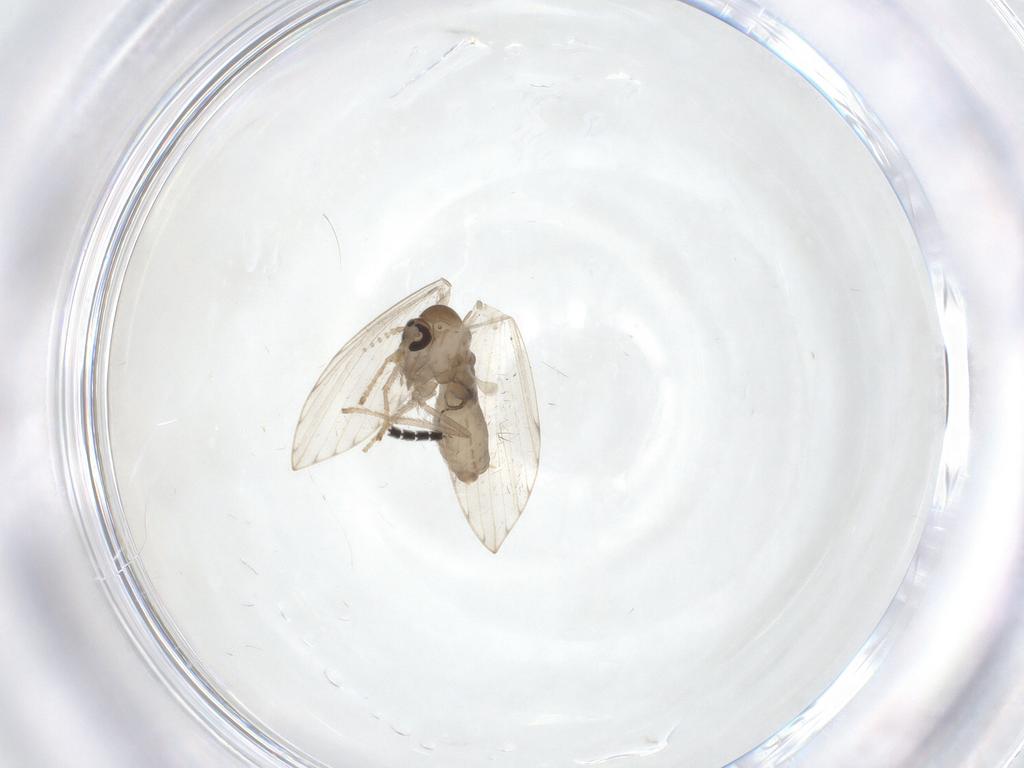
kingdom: Animalia
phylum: Arthropoda
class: Insecta
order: Diptera
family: Psychodidae
